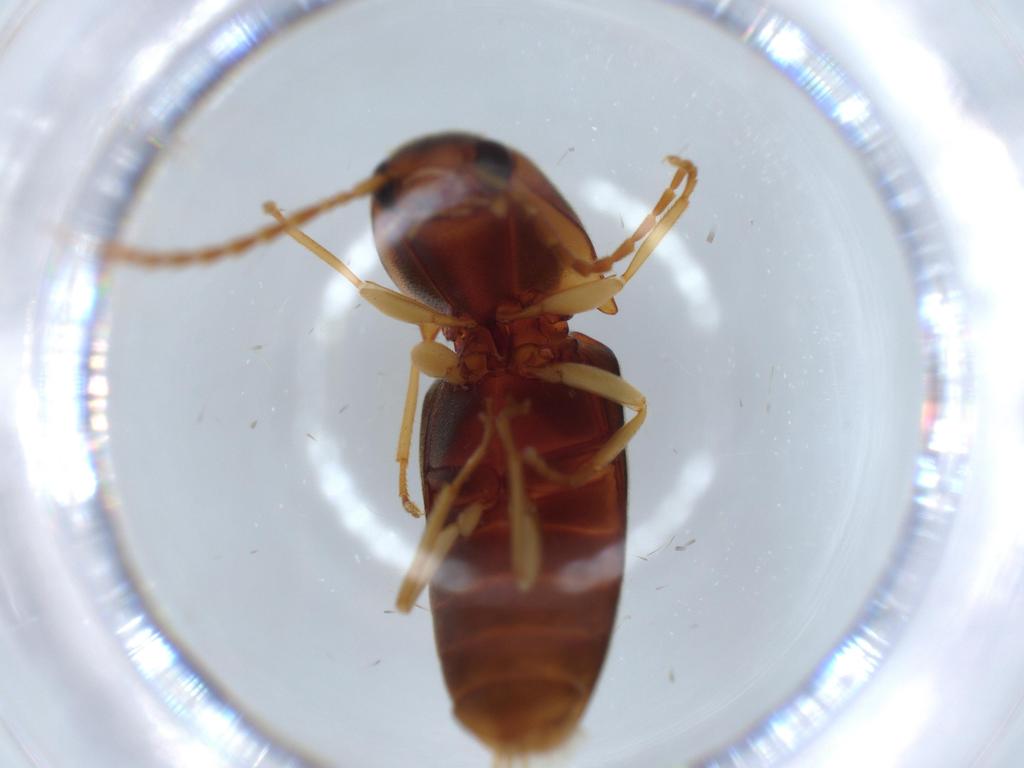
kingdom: Animalia
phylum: Arthropoda
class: Insecta
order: Coleoptera
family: Elateridae
